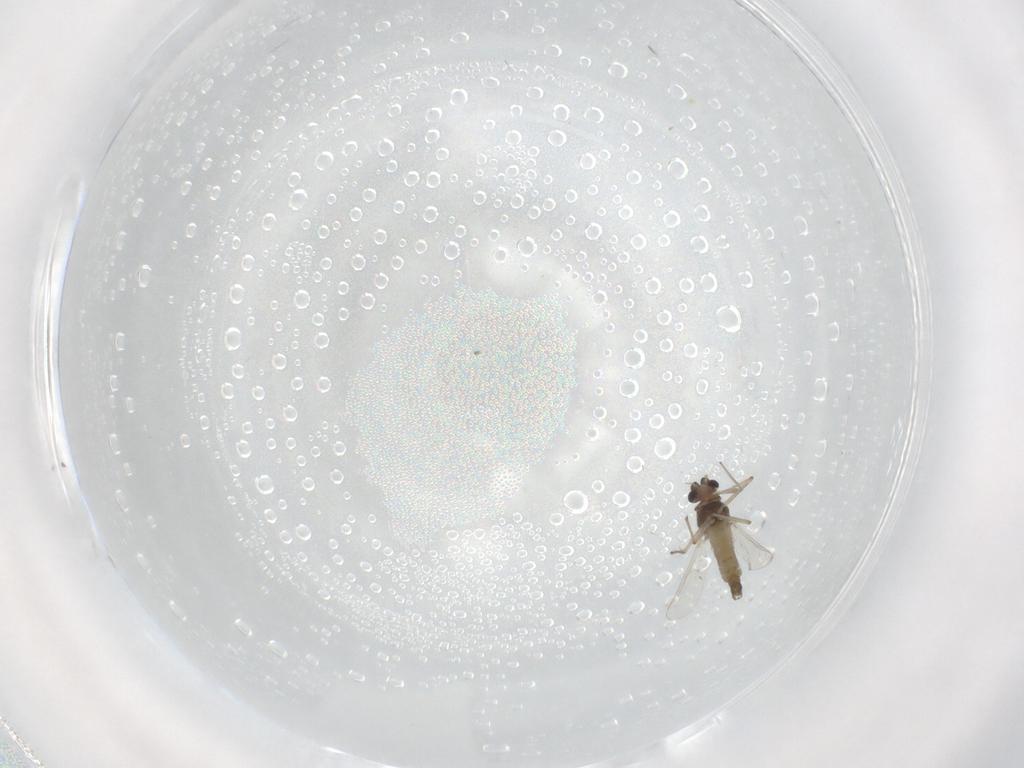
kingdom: Animalia
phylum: Arthropoda
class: Insecta
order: Diptera
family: Chironomidae
